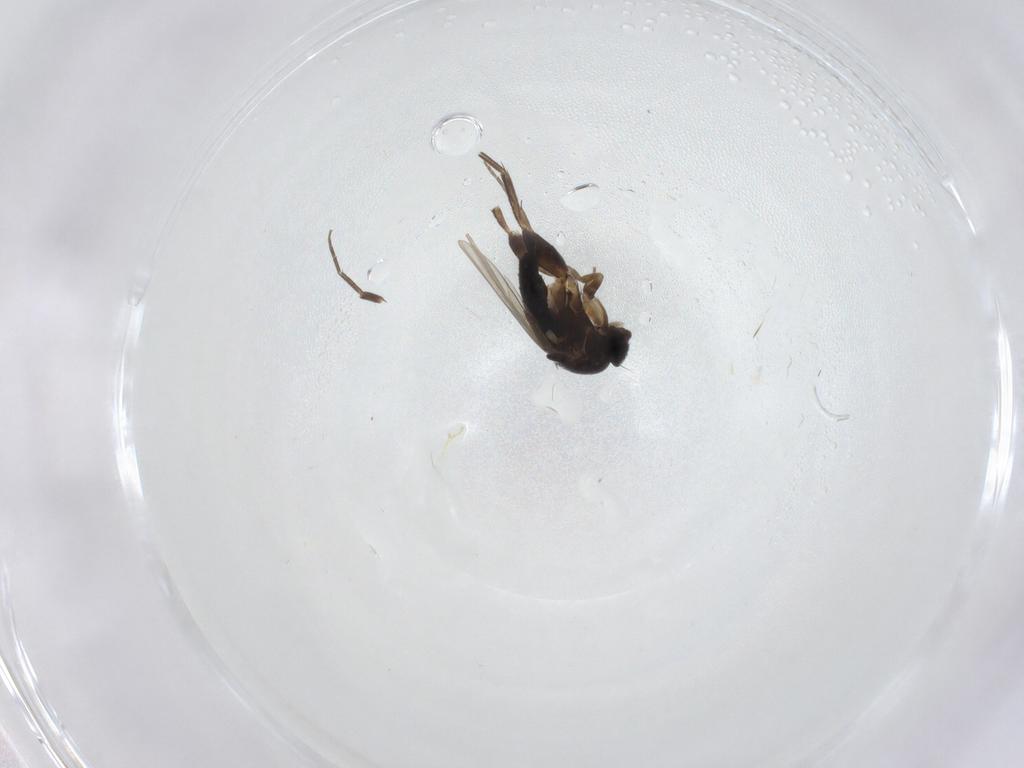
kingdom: Animalia
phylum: Arthropoda
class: Insecta
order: Diptera
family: Phoridae
